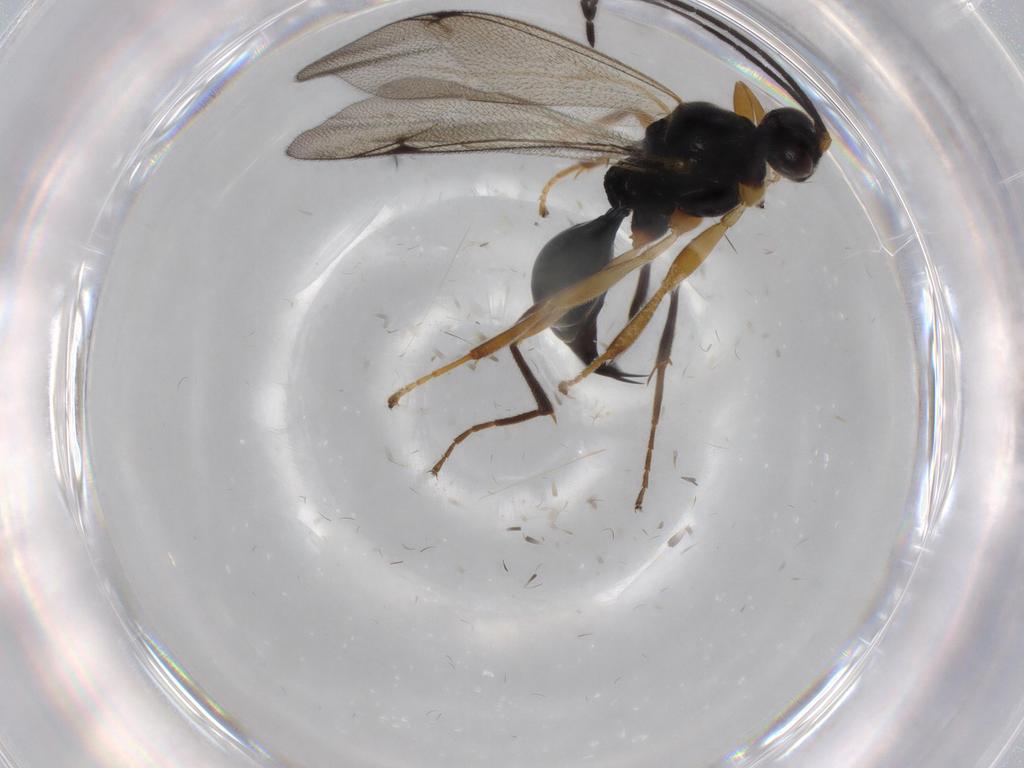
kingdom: Animalia
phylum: Arthropoda
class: Insecta
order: Hymenoptera
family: Proctotrupidae
